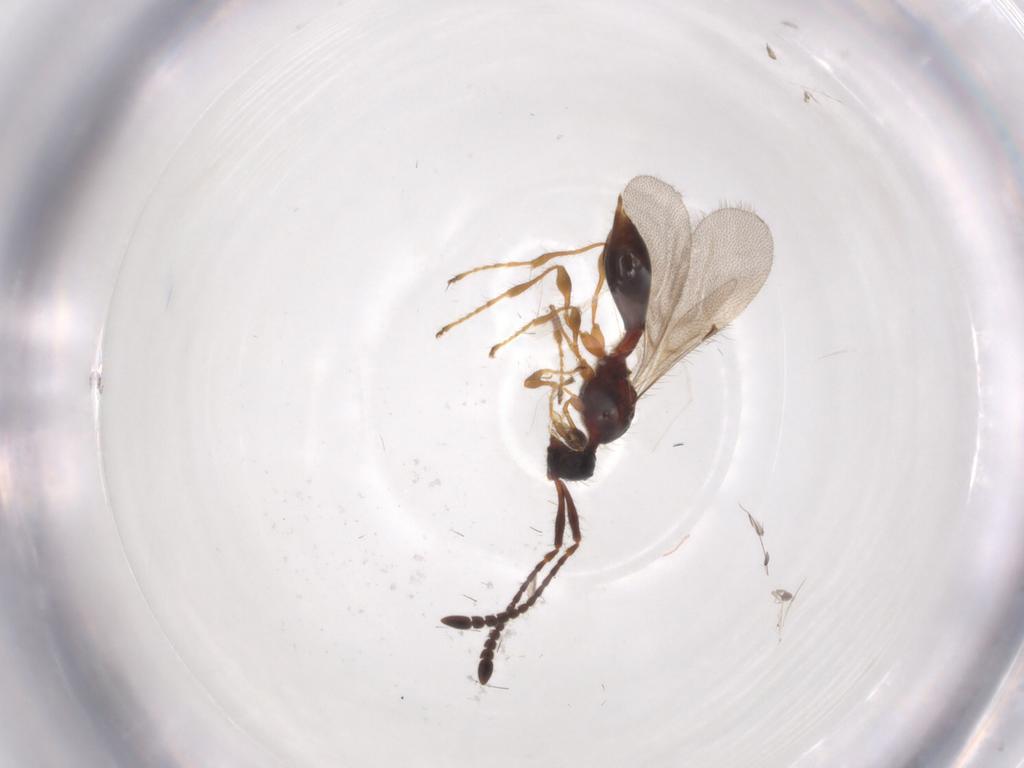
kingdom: Animalia
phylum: Arthropoda
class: Insecta
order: Hymenoptera
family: Diapriidae
